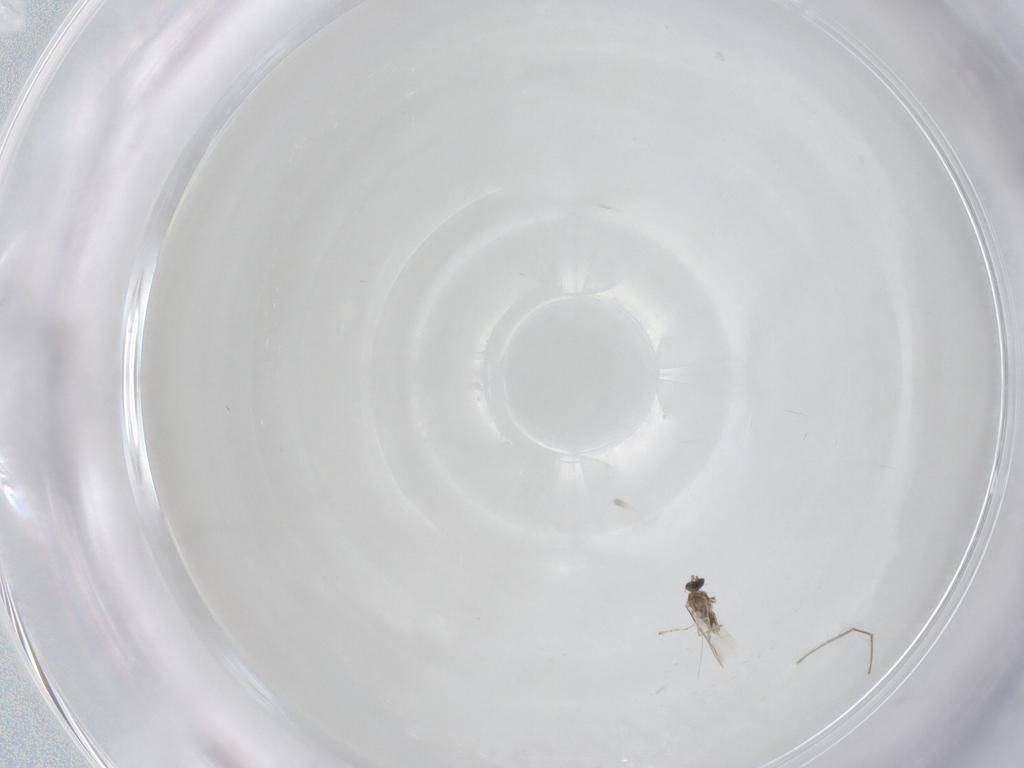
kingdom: Animalia
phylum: Arthropoda
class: Insecta
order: Diptera
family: Cecidomyiidae
